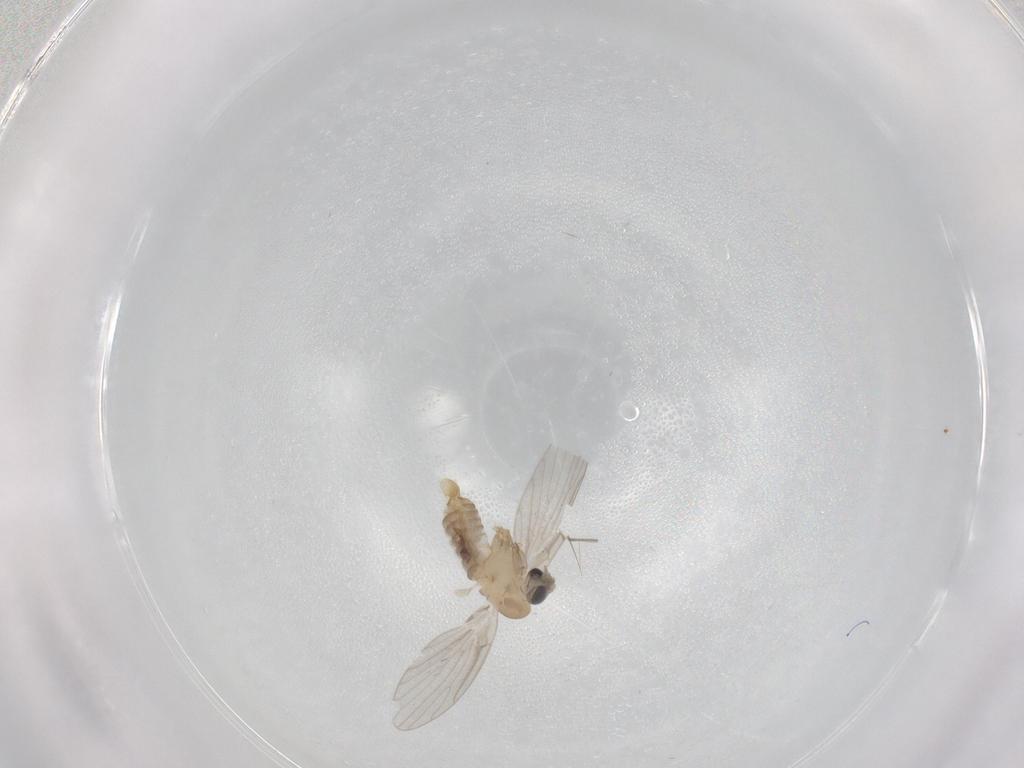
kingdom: Animalia
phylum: Arthropoda
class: Insecta
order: Diptera
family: Psychodidae
